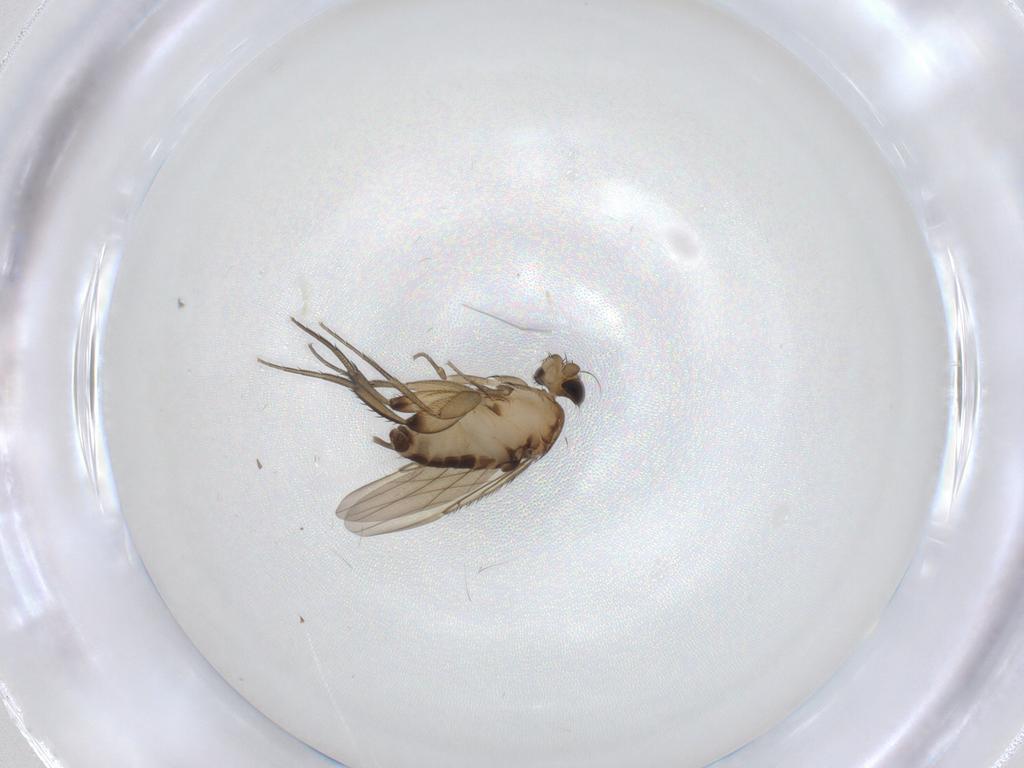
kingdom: Animalia
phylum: Arthropoda
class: Insecta
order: Diptera
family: Phoridae
